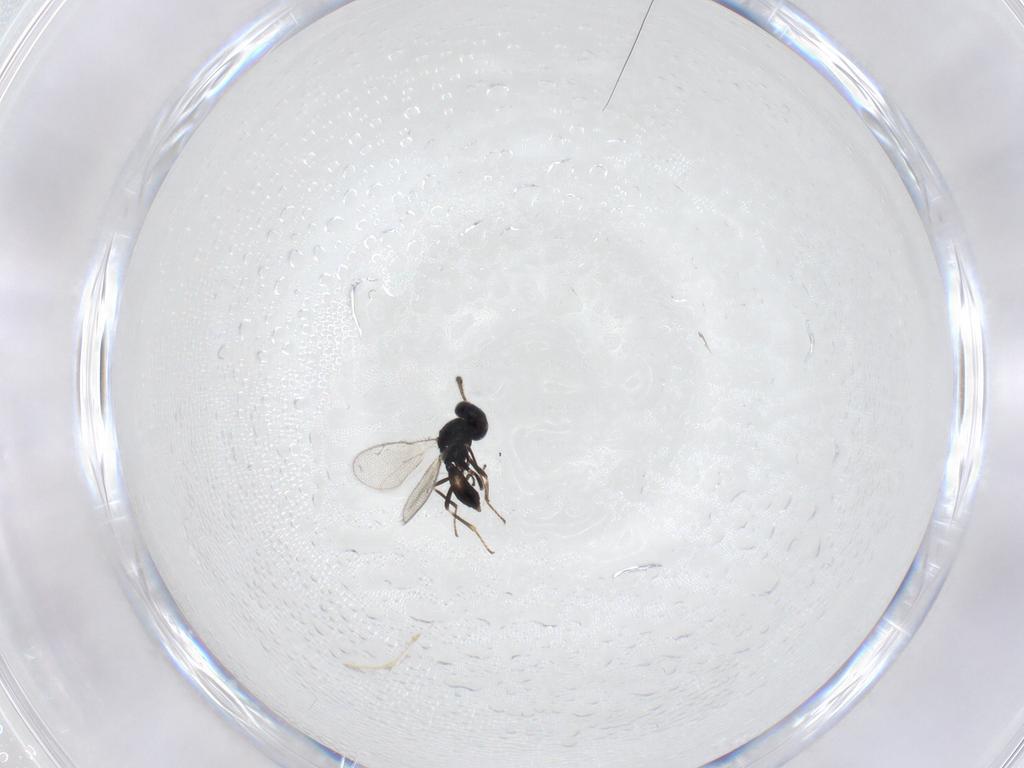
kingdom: Animalia
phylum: Arthropoda
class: Insecta
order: Hymenoptera
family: Pteromalidae
